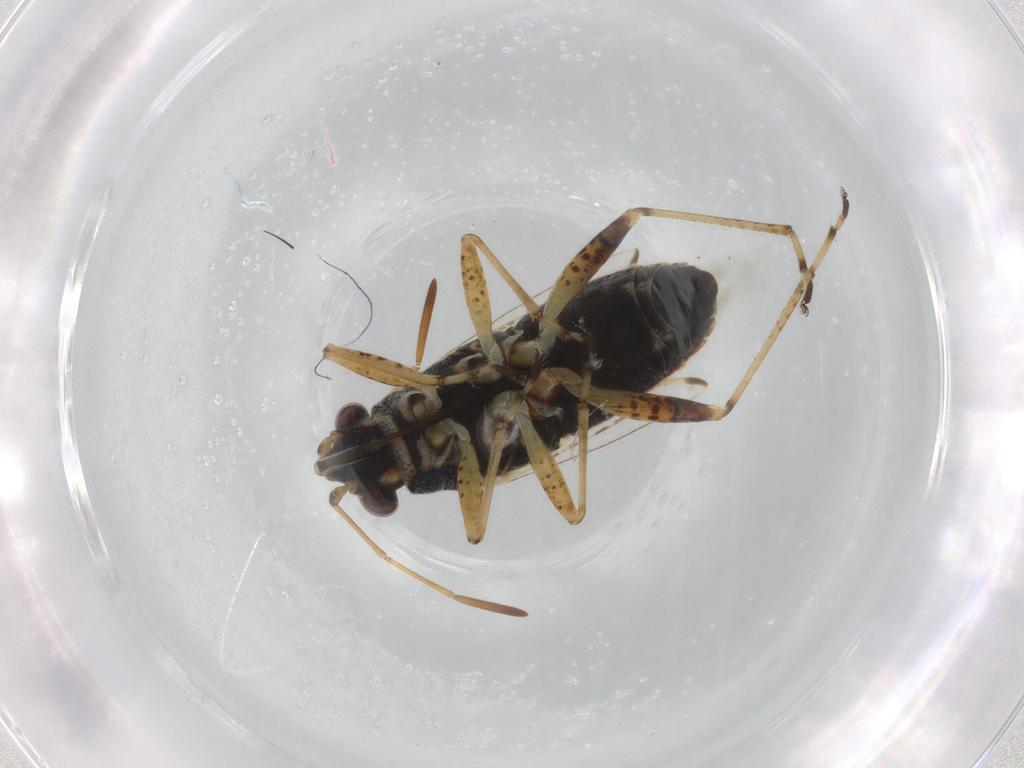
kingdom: Animalia
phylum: Arthropoda
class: Insecta
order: Hemiptera
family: Lygaeidae
